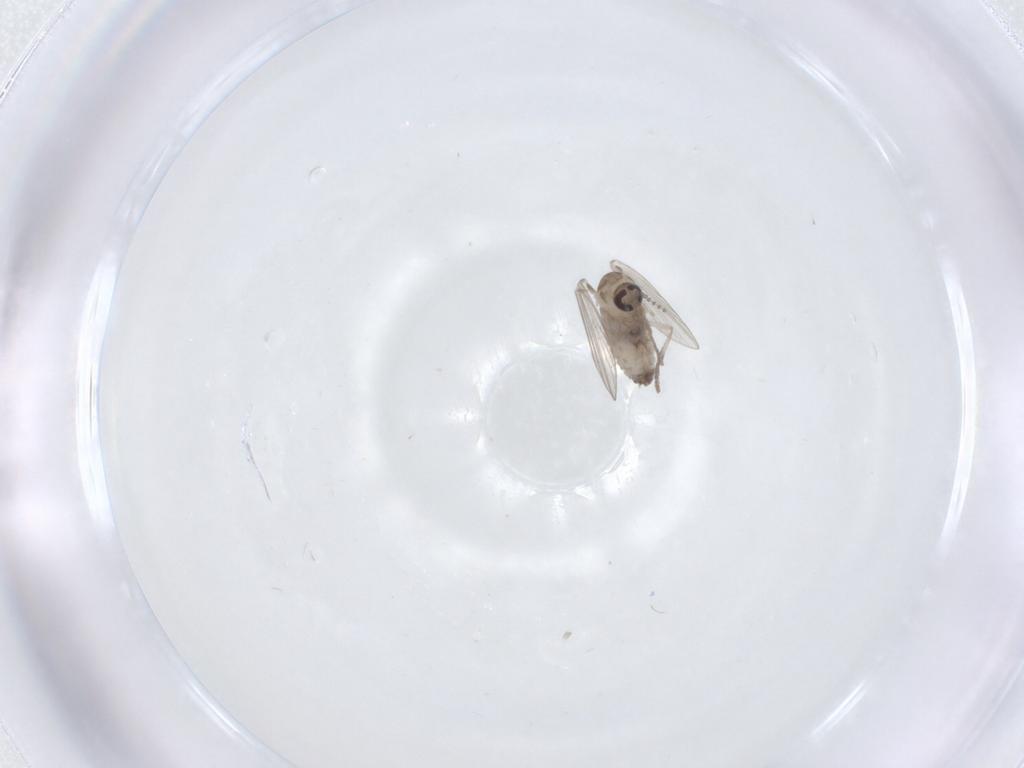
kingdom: Animalia
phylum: Arthropoda
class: Insecta
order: Diptera
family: Psychodidae
